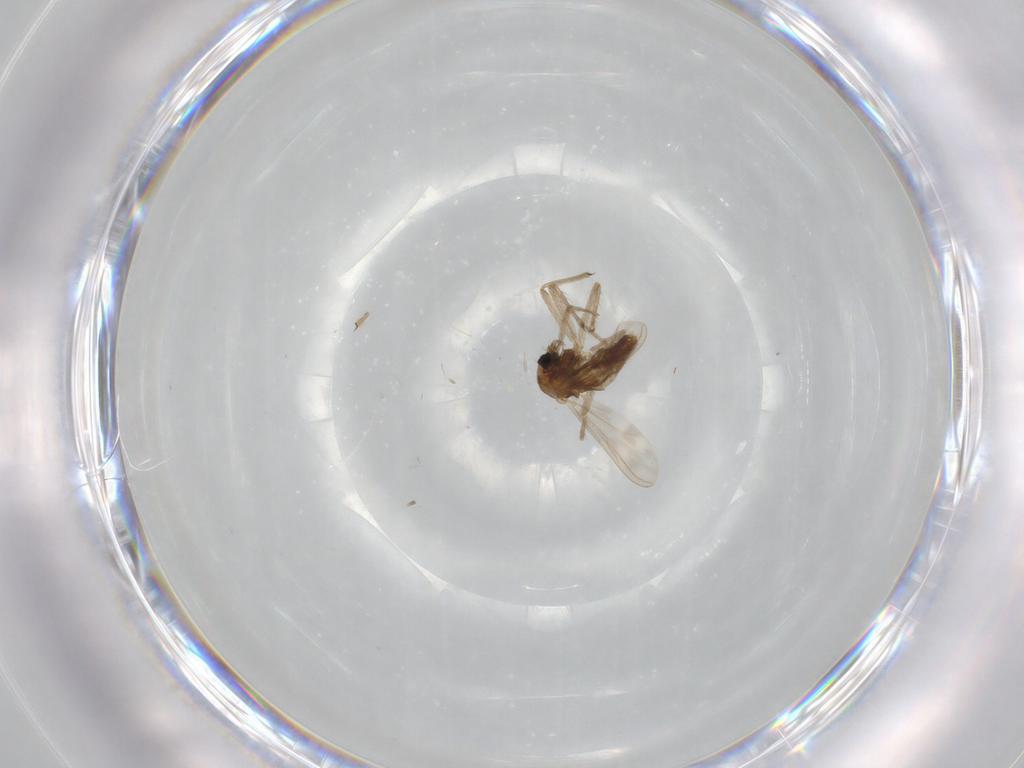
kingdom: Animalia
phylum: Arthropoda
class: Insecta
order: Diptera
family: Chironomidae
